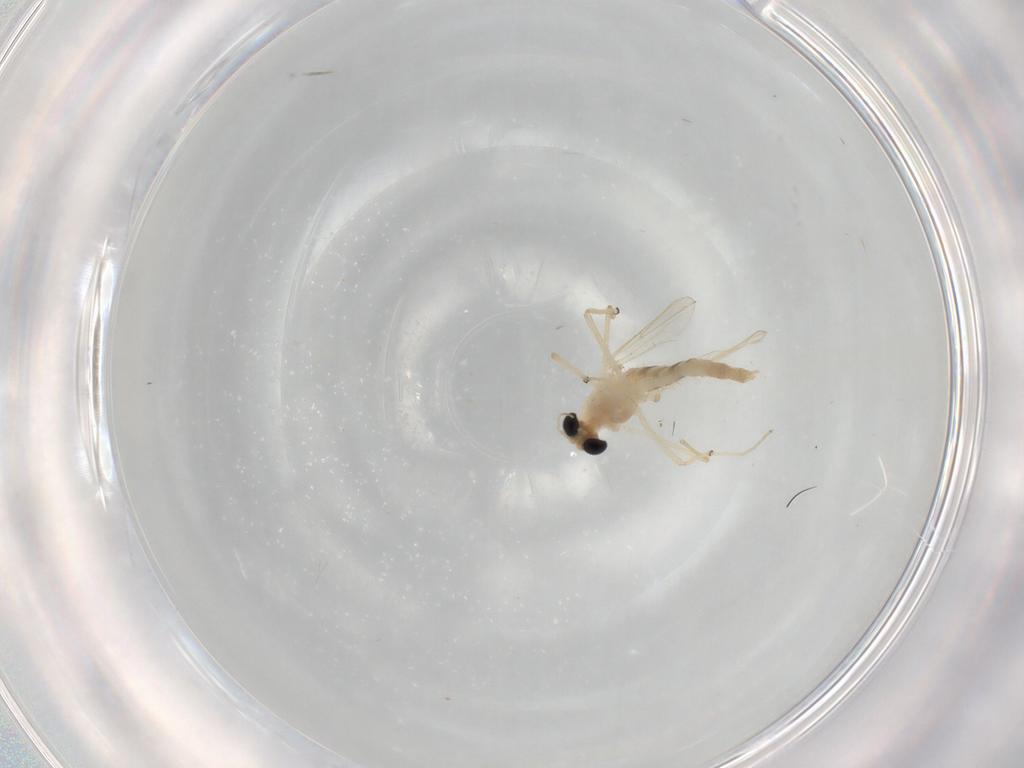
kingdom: Animalia
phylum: Arthropoda
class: Insecta
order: Diptera
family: Chironomidae
